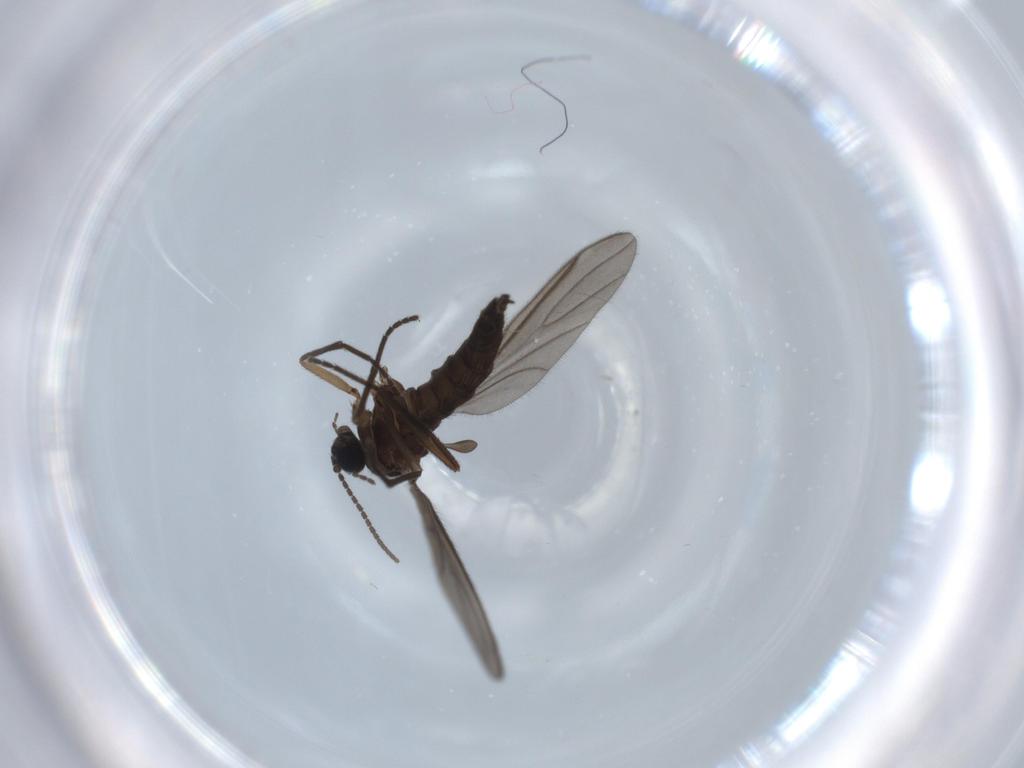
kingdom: Animalia
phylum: Arthropoda
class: Insecta
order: Diptera
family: Sciaridae
